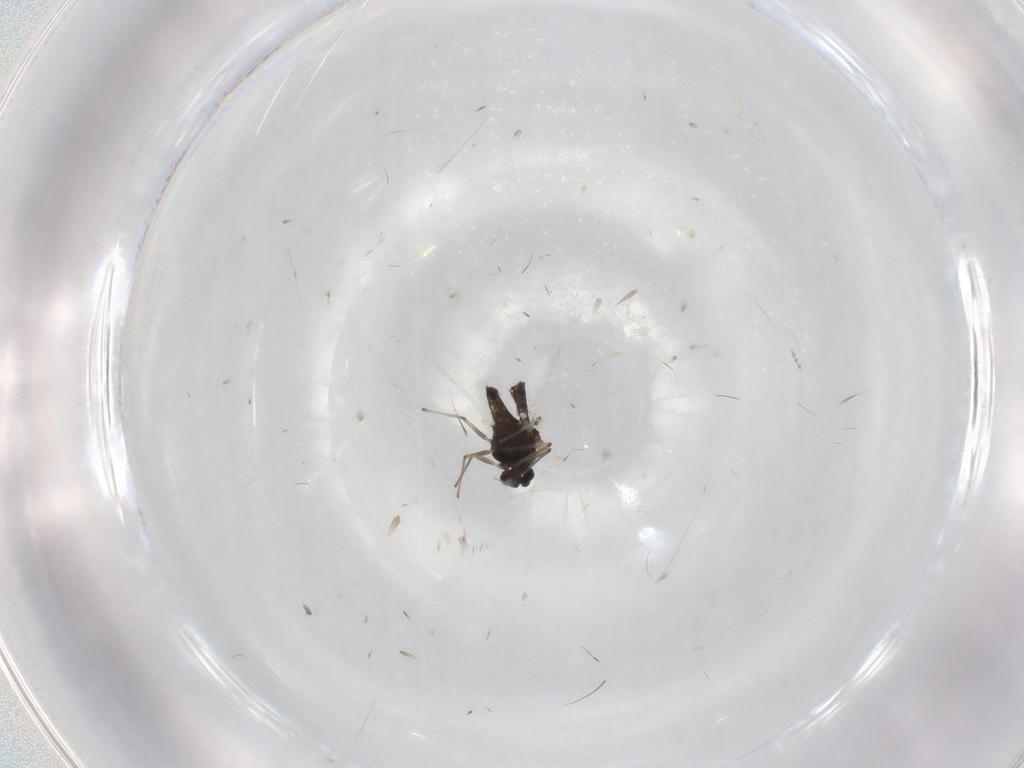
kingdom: Animalia
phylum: Arthropoda
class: Insecta
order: Diptera
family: Chironomidae
